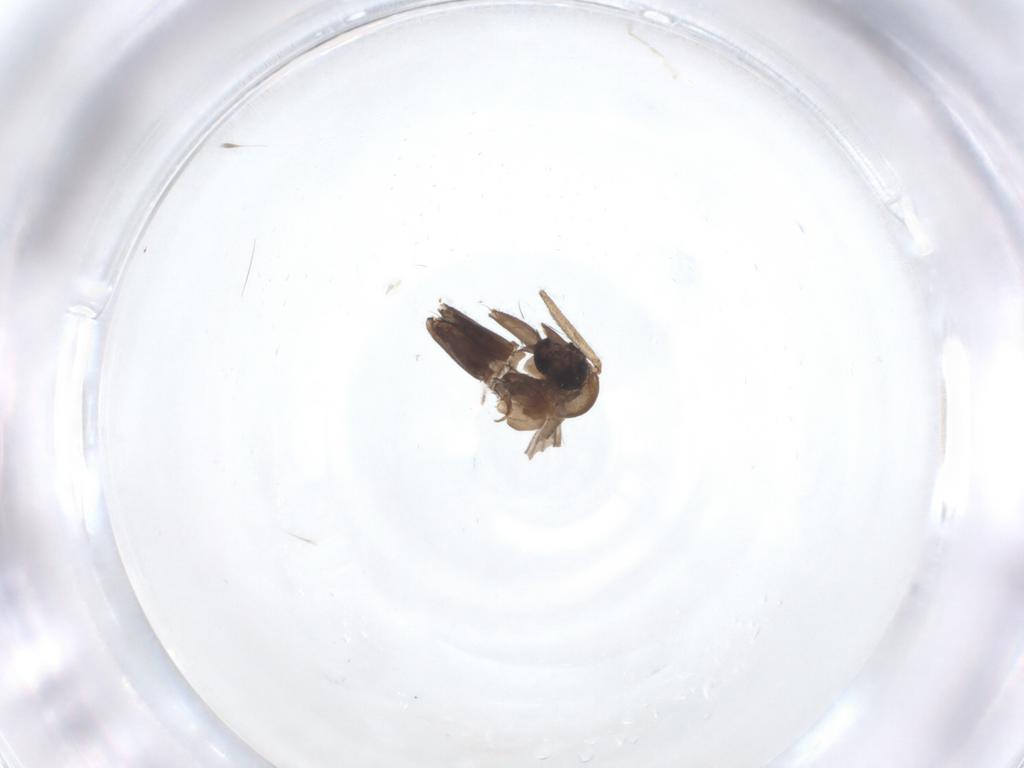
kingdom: Animalia
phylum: Arthropoda
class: Insecta
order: Diptera
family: Ditomyiidae
